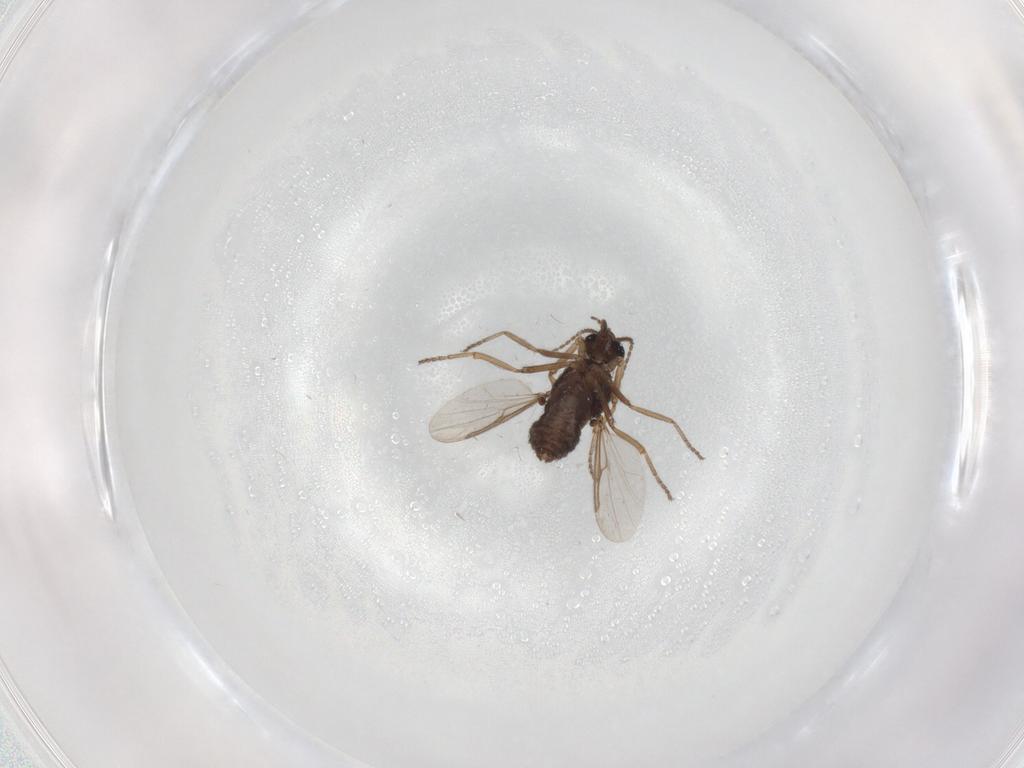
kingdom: Animalia
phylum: Arthropoda
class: Insecta
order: Diptera
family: Ceratopogonidae
